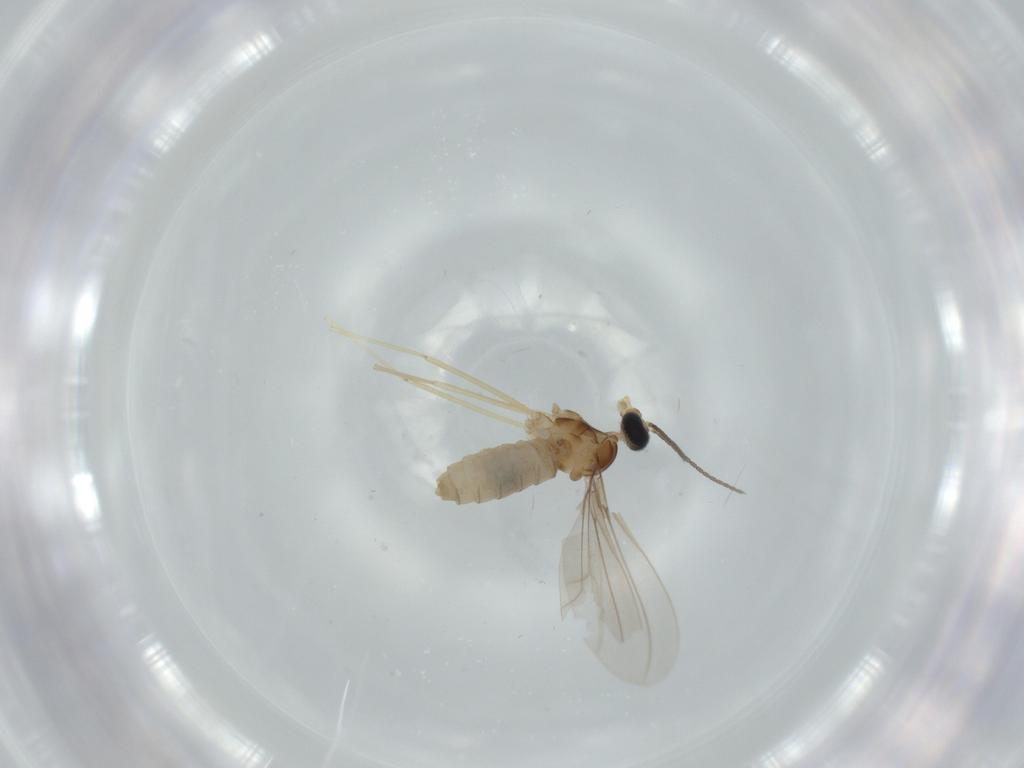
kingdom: Animalia
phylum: Arthropoda
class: Insecta
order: Diptera
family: Cecidomyiidae
